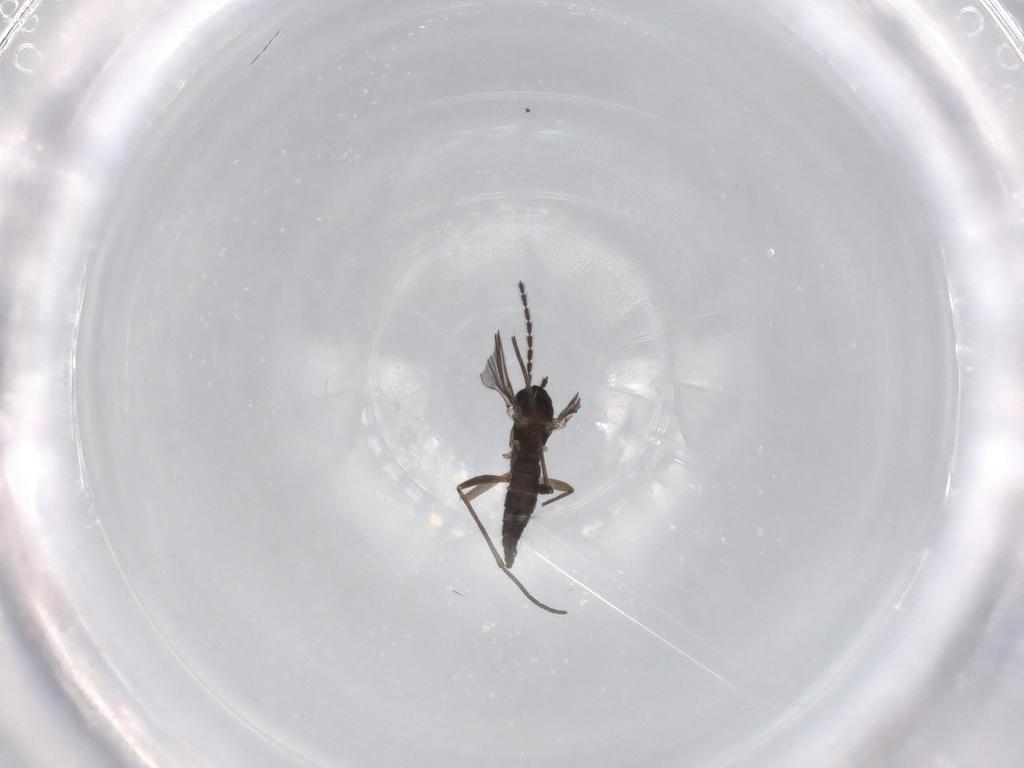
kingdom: Animalia
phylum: Arthropoda
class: Insecta
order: Diptera
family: Sciaridae
